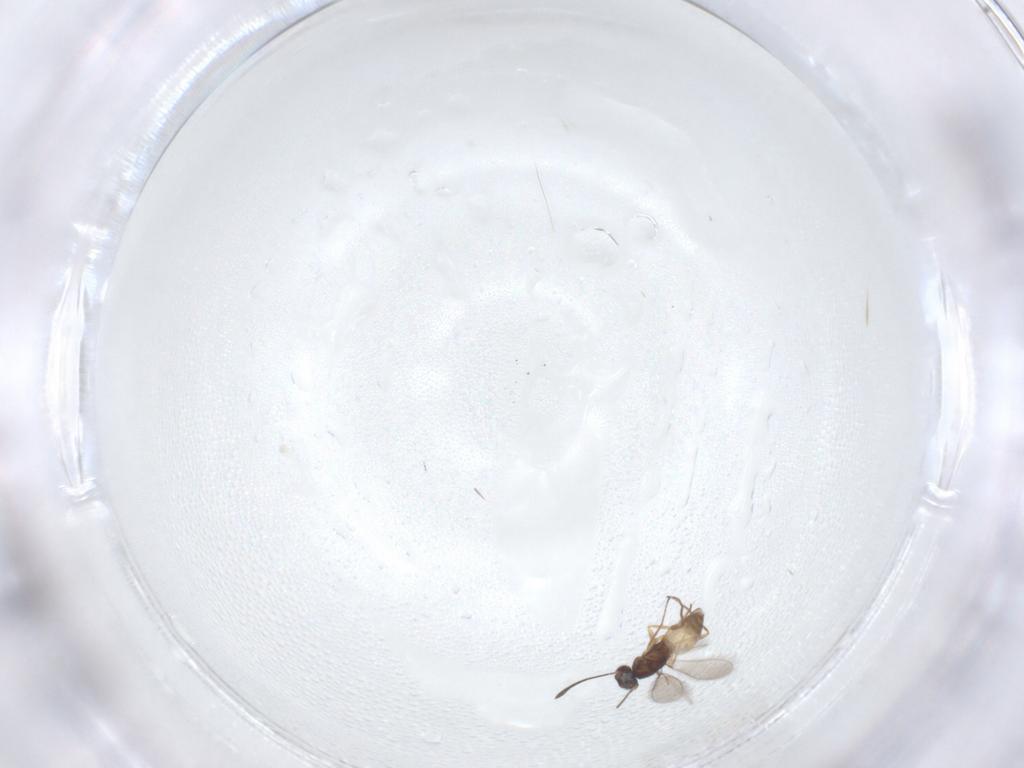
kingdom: Animalia
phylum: Arthropoda
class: Insecta
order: Hymenoptera
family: Mymaridae
